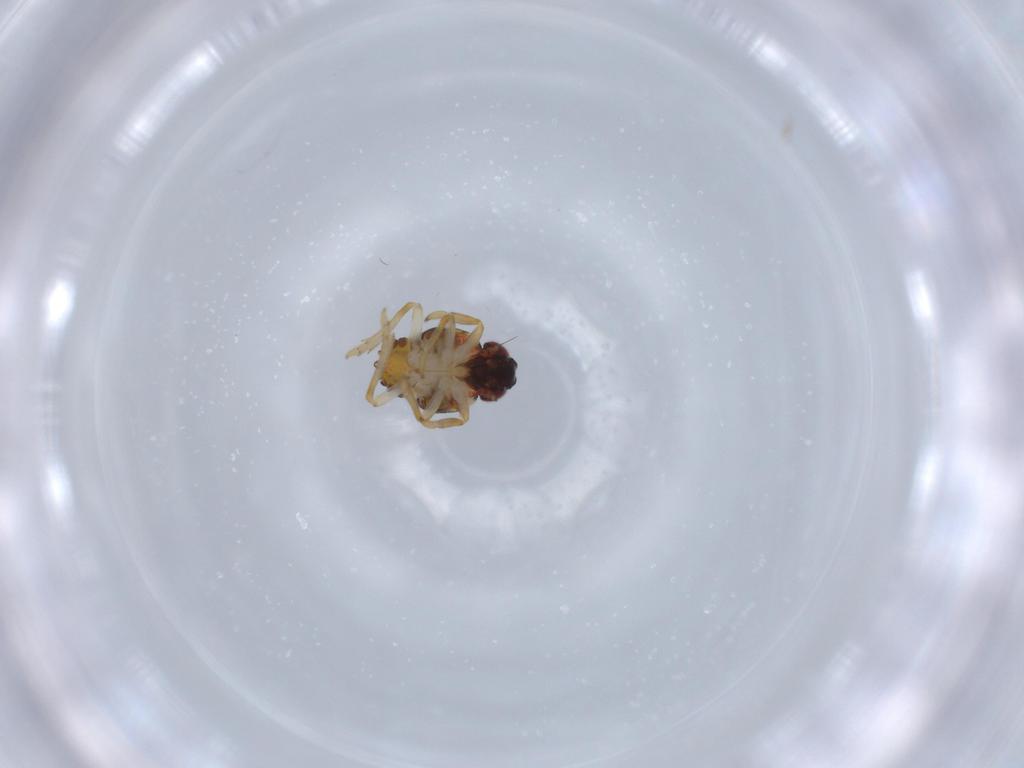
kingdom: Animalia
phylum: Arthropoda
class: Insecta
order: Hemiptera
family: Issidae
